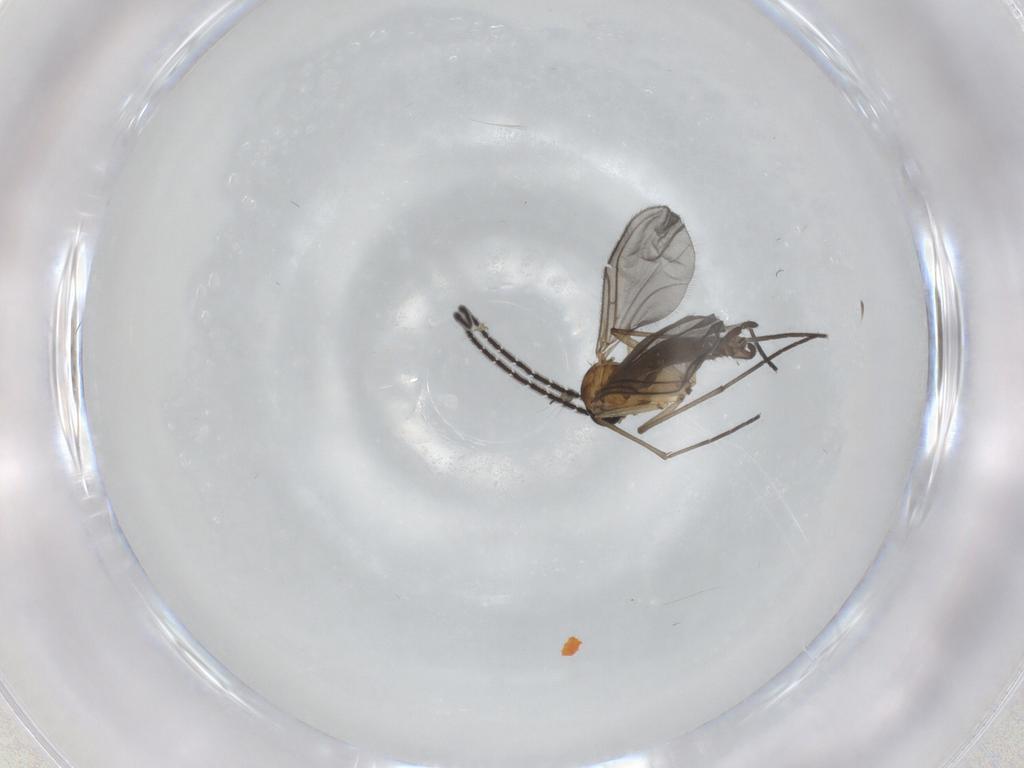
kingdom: Animalia
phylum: Arthropoda
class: Insecta
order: Diptera
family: Sciaridae
